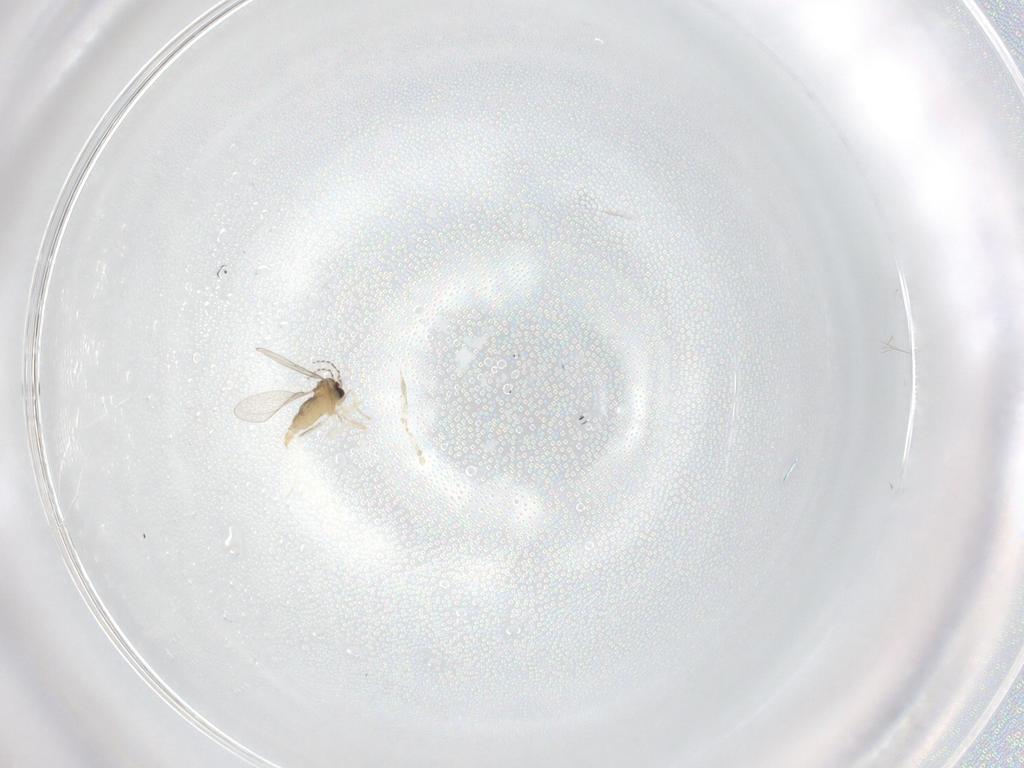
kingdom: Animalia
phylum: Arthropoda
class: Insecta
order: Diptera
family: Cecidomyiidae
